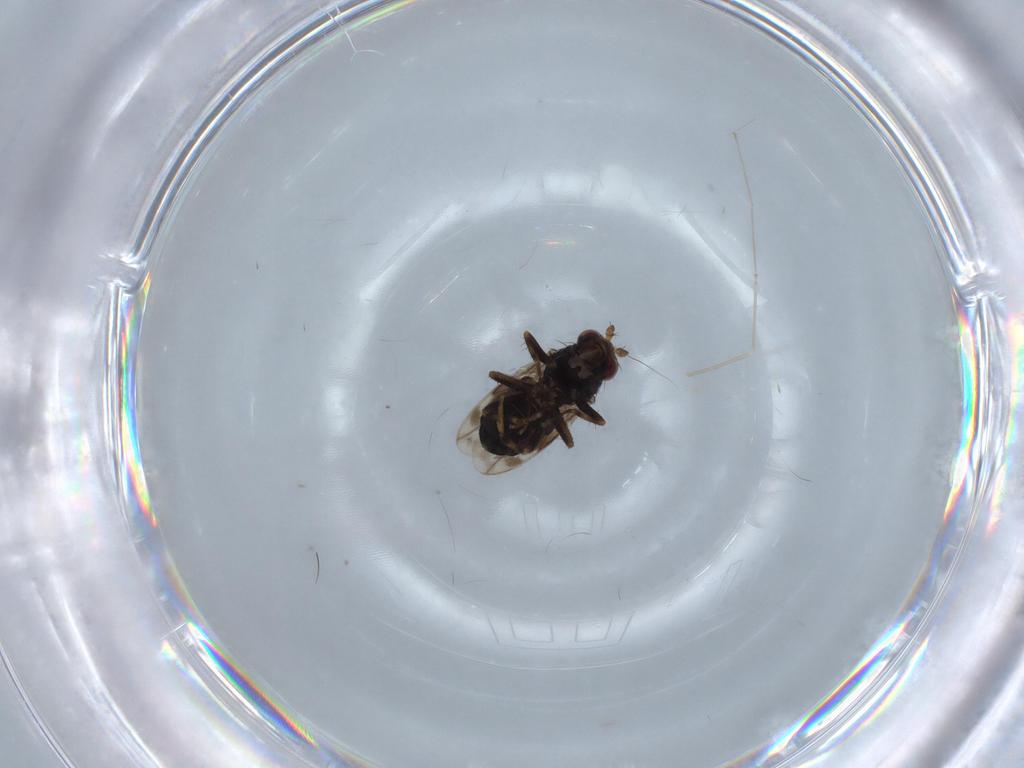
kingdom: Animalia
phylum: Arthropoda
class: Insecta
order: Diptera
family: Sphaeroceridae
